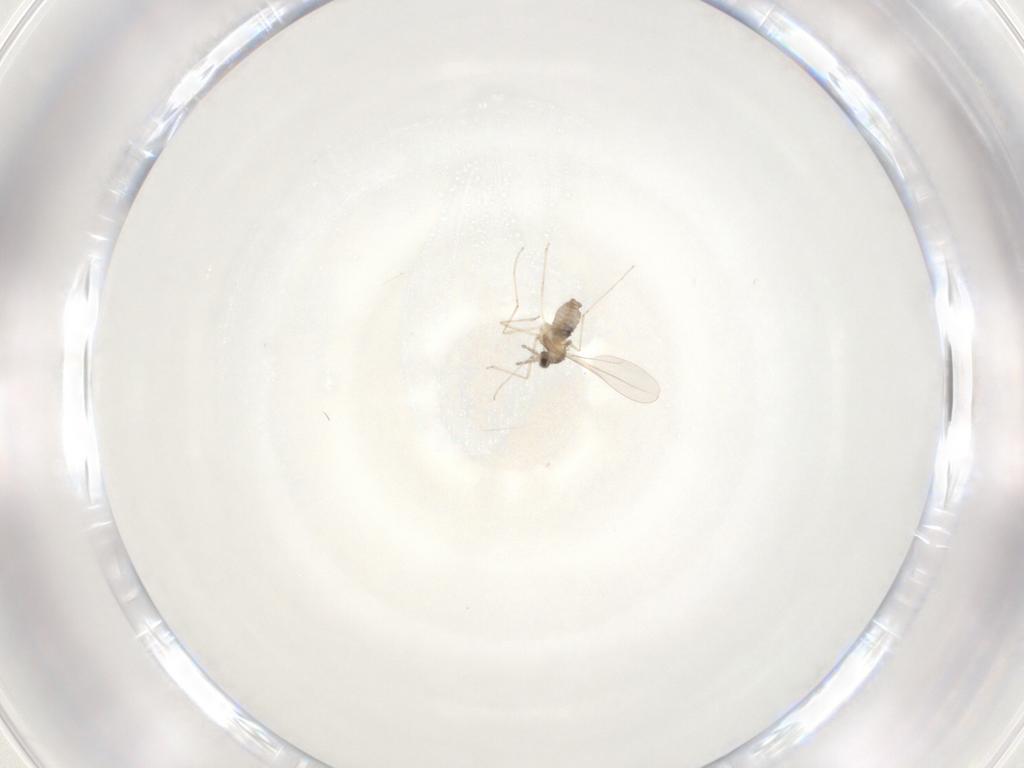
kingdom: Animalia
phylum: Arthropoda
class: Insecta
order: Diptera
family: Cecidomyiidae
